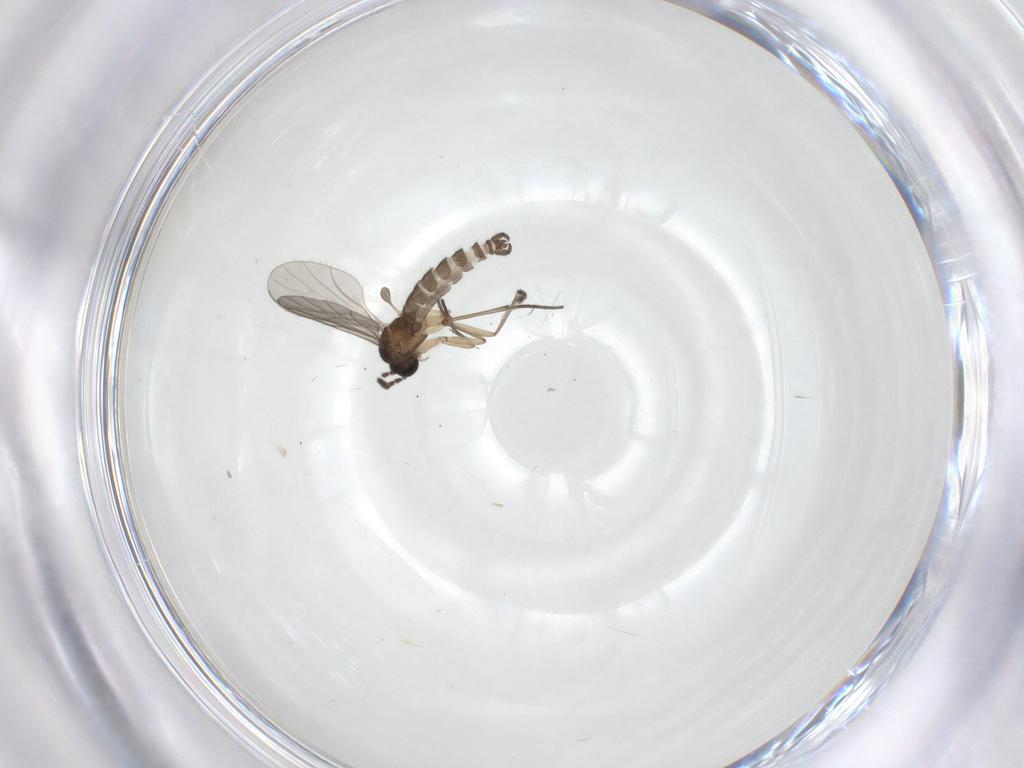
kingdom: Animalia
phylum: Arthropoda
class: Insecta
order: Diptera
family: Sciaridae
